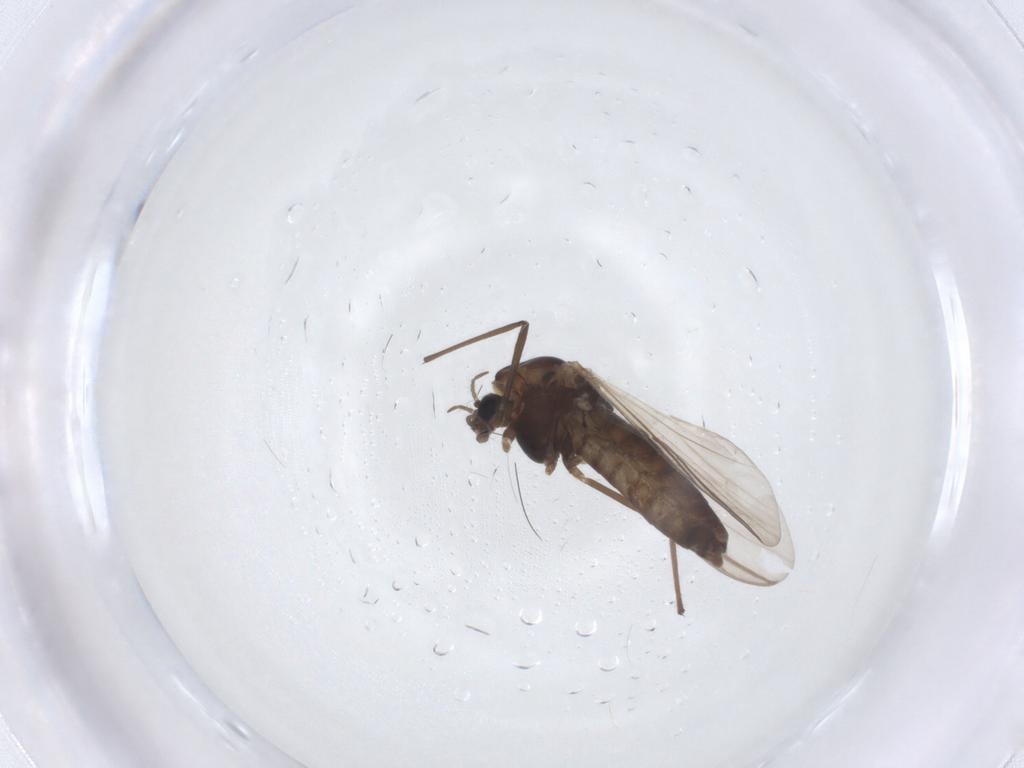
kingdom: Animalia
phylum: Arthropoda
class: Insecta
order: Diptera
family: Chironomidae
